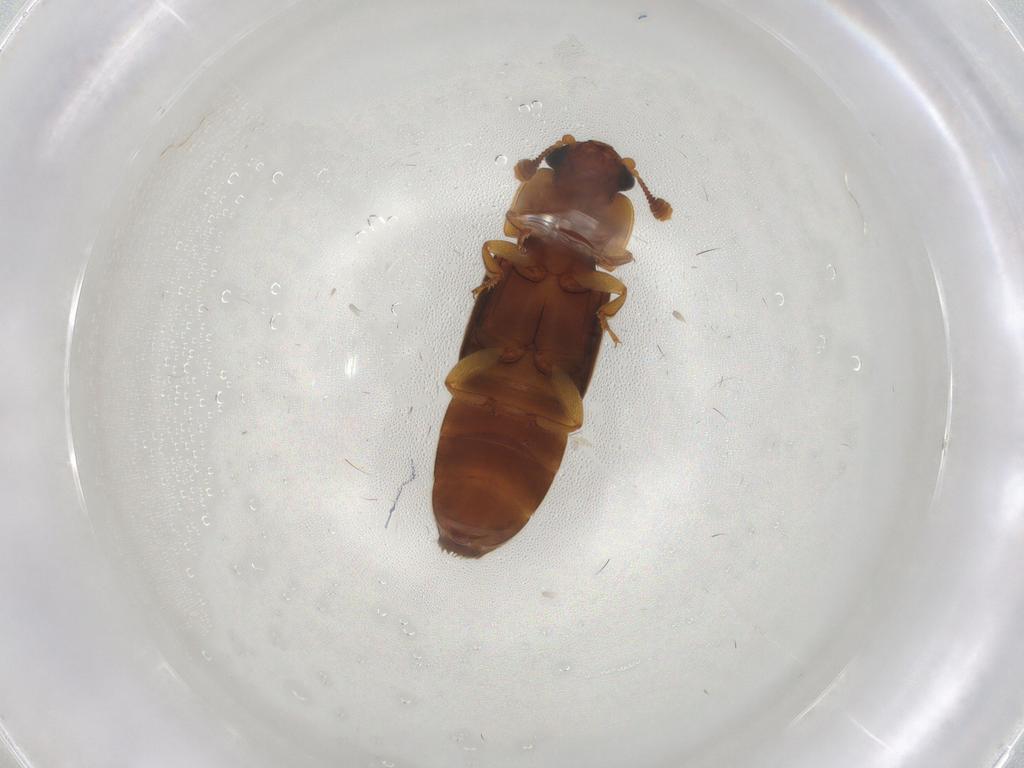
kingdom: Animalia
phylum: Arthropoda
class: Insecta
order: Coleoptera
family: Nitidulidae
